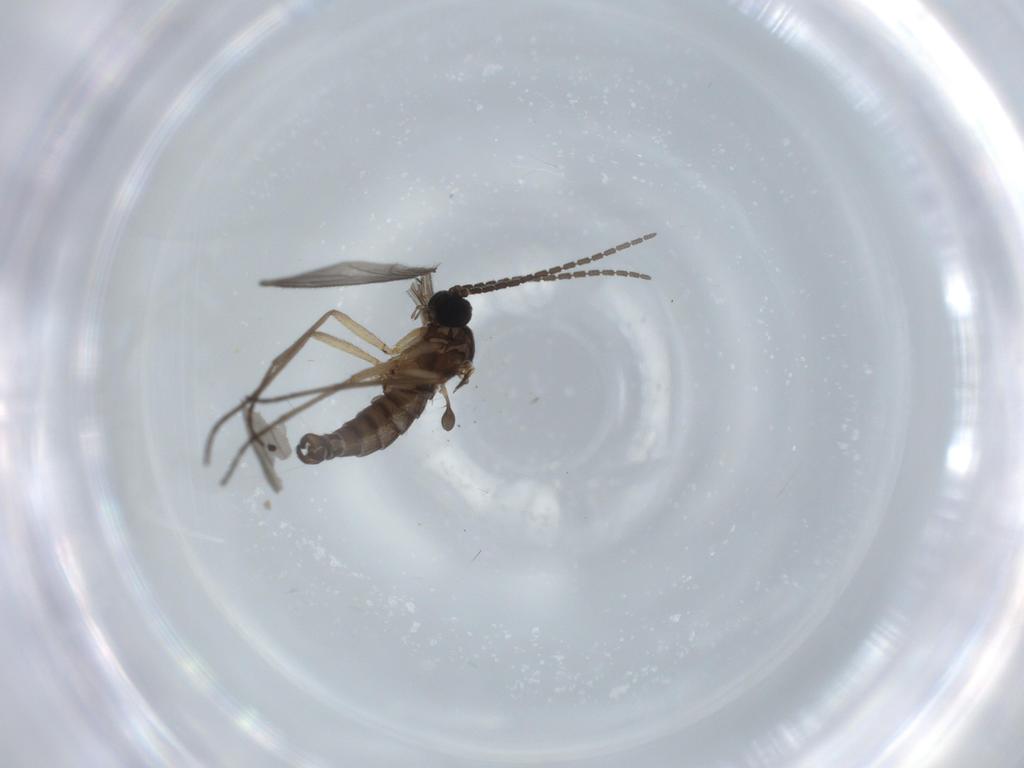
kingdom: Animalia
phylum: Arthropoda
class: Insecta
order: Diptera
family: Sciaridae
